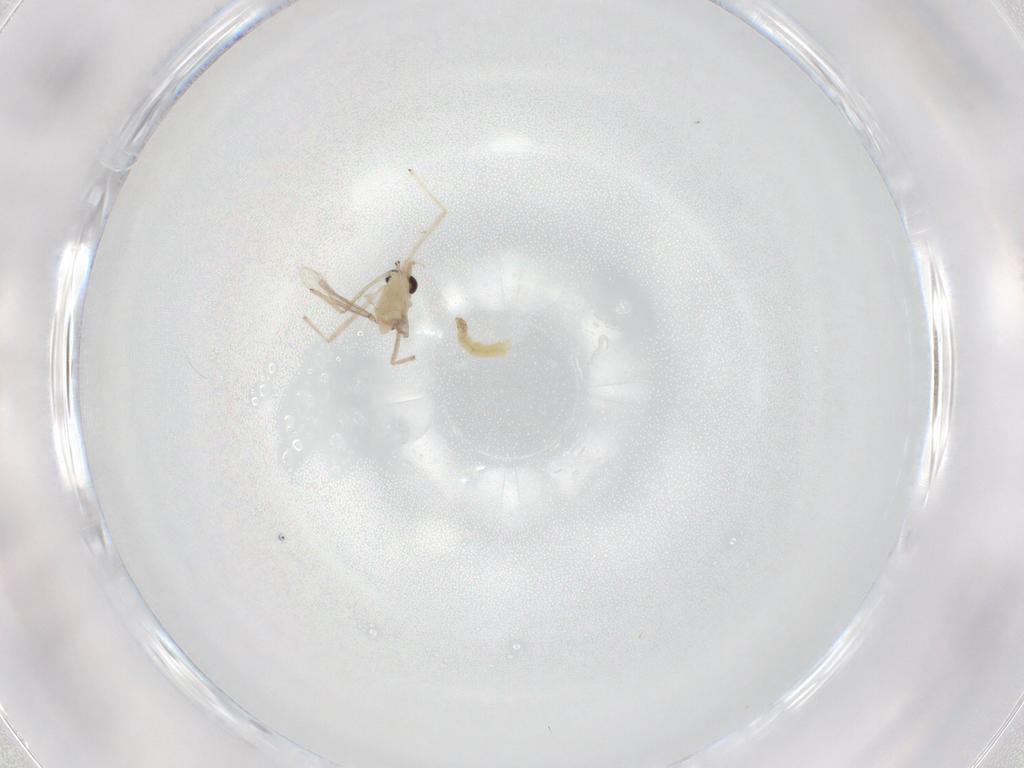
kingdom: Animalia
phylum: Arthropoda
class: Insecta
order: Diptera
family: Chironomidae
